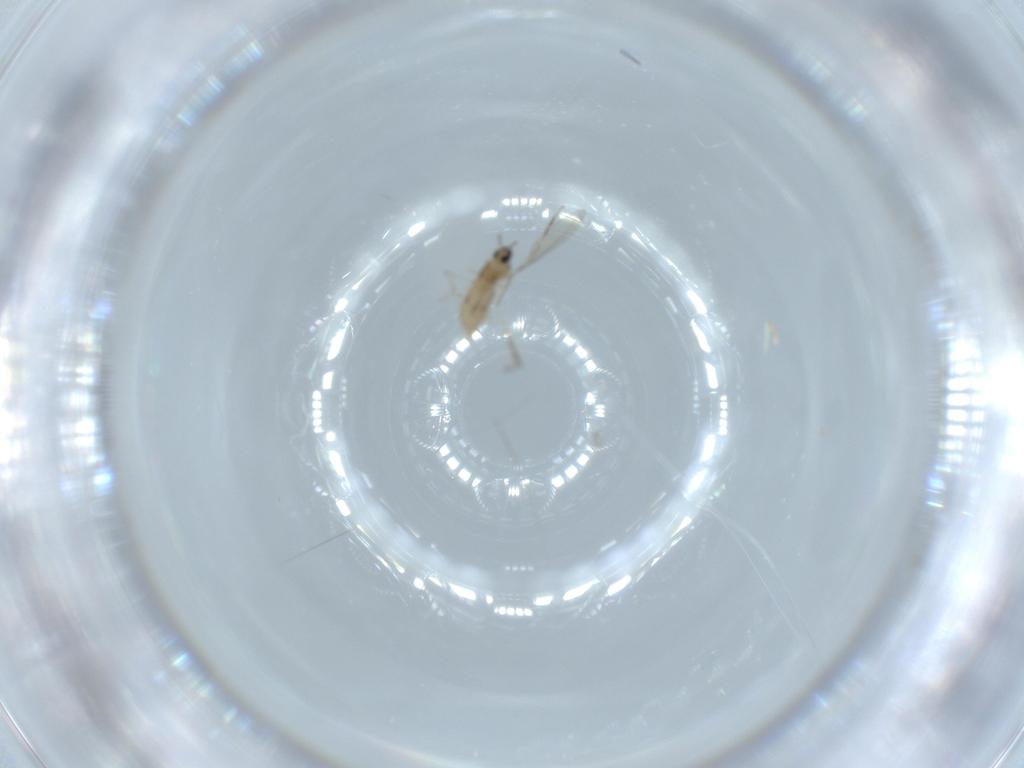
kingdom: Animalia
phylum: Arthropoda
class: Insecta
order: Diptera
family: Cecidomyiidae
